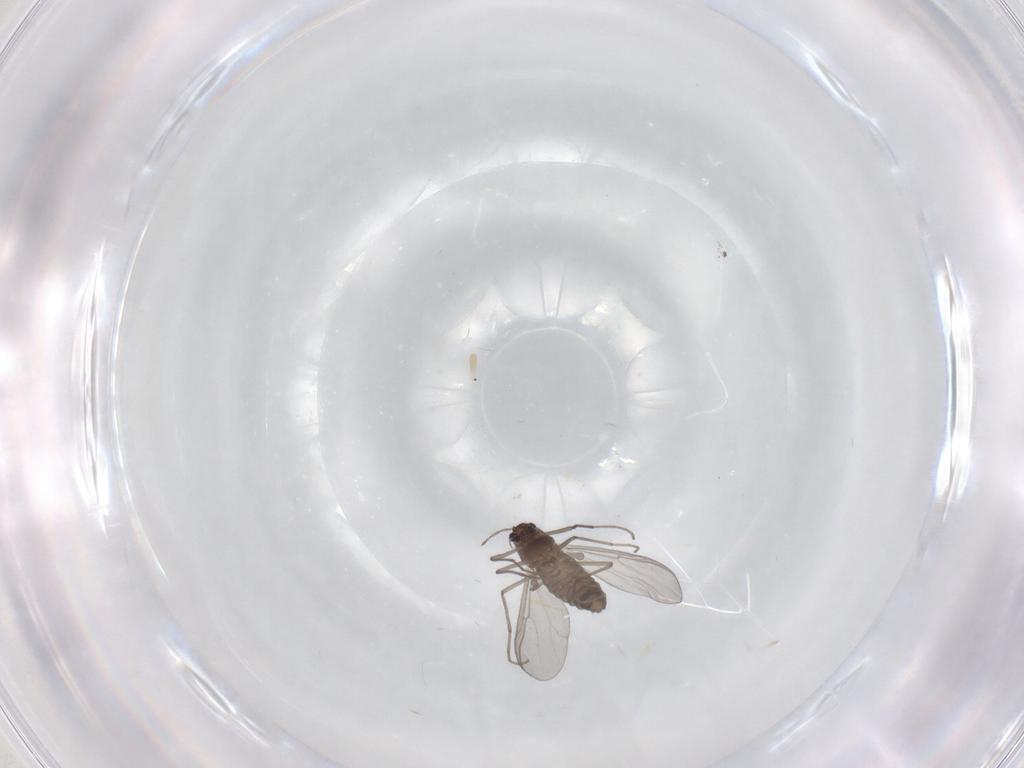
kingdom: Animalia
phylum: Arthropoda
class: Insecta
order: Diptera
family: Chironomidae
